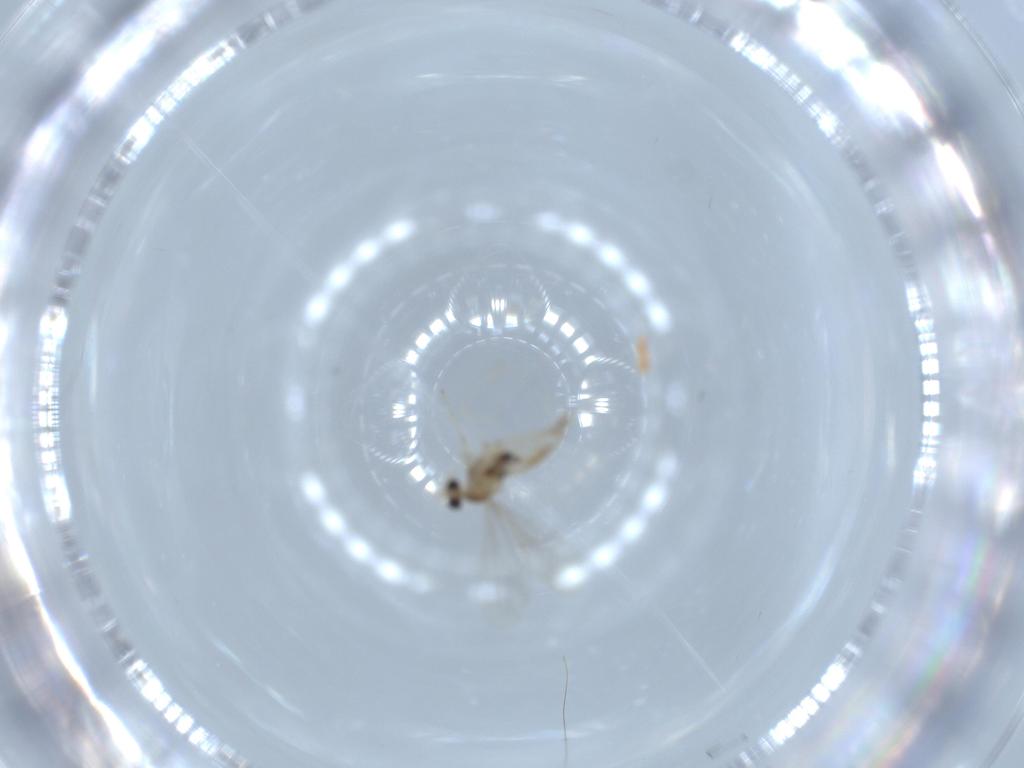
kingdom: Animalia
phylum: Arthropoda
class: Insecta
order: Diptera
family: Cecidomyiidae
